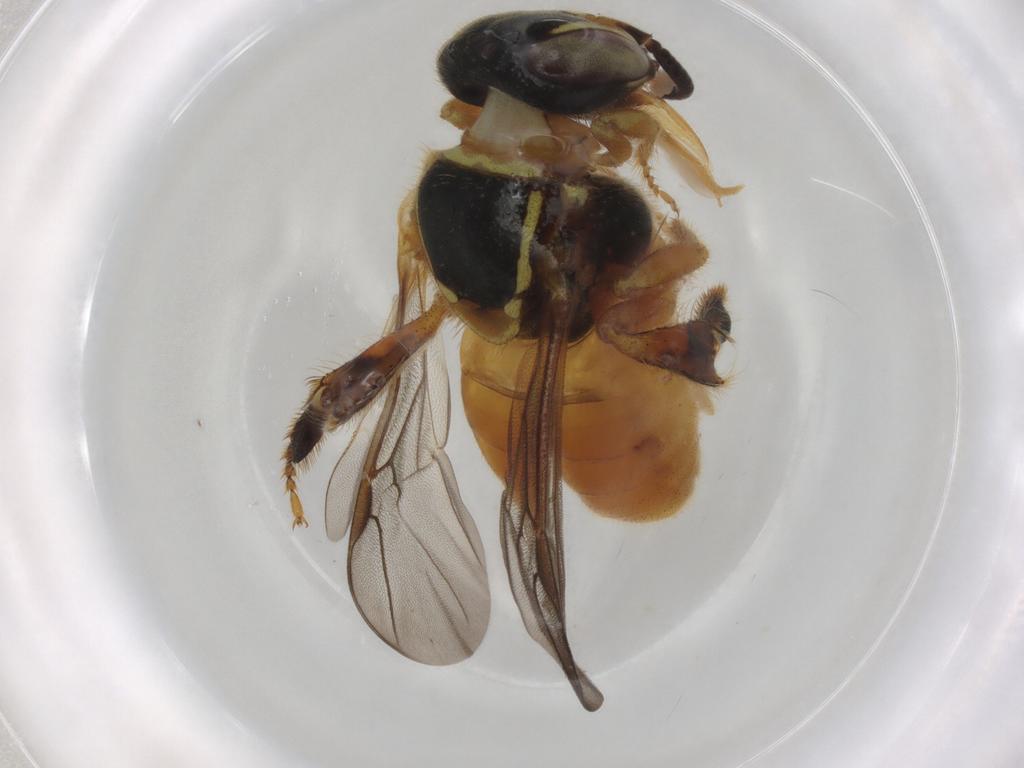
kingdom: Animalia
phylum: Arthropoda
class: Insecta
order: Hymenoptera
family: Apidae
